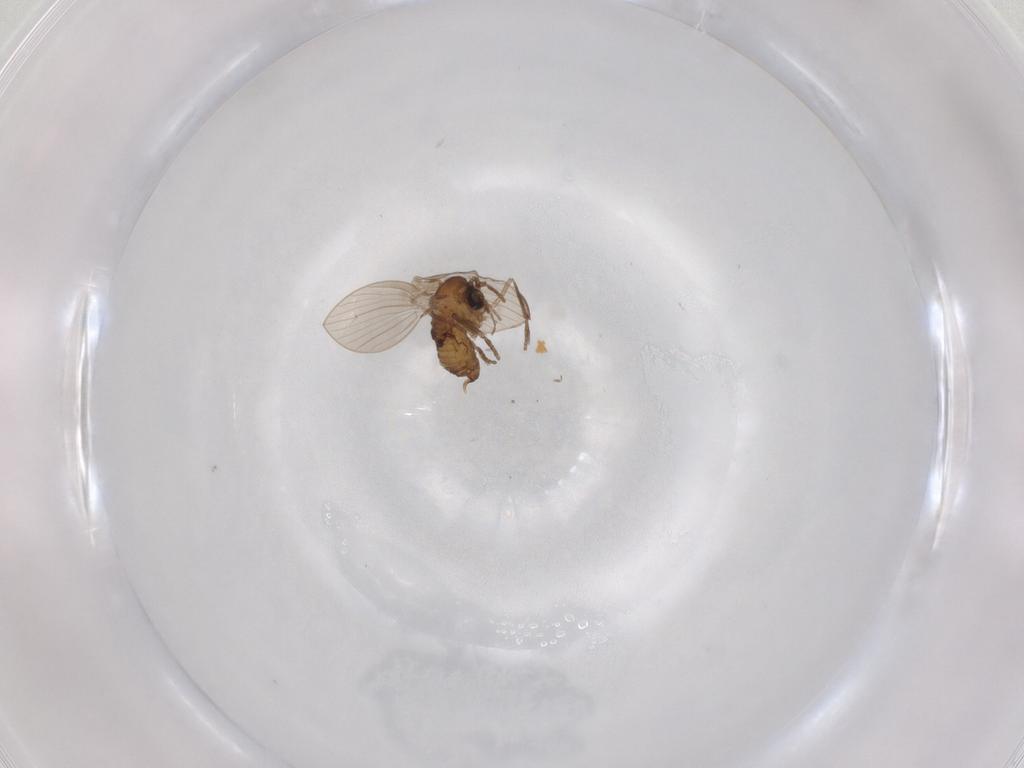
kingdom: Animalia
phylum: Arthropoda
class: Insecta
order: Diptera
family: Psychodidae
